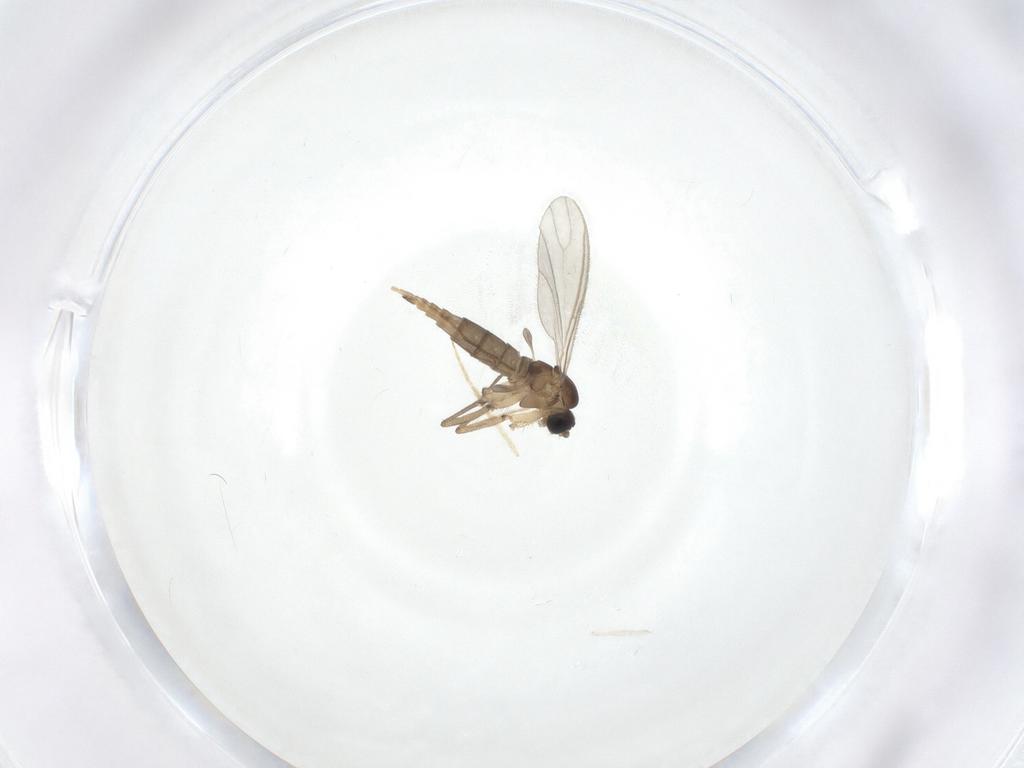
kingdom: Animalia
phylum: Arthropoda
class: Insecta
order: Diptera
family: Sciaridae
